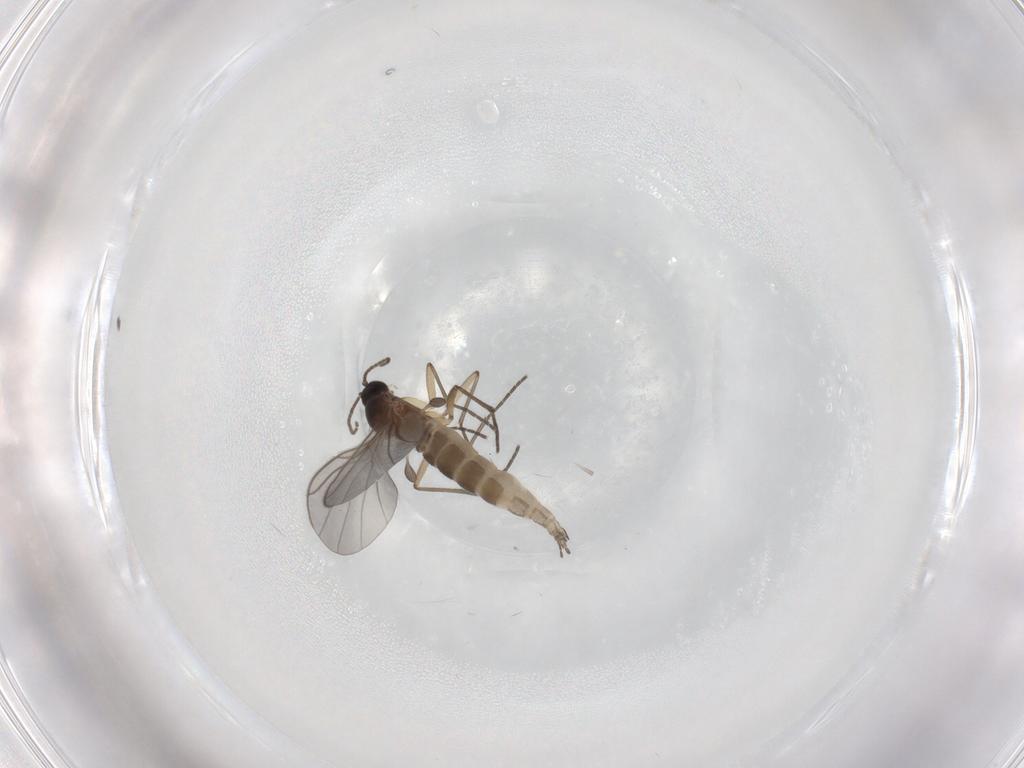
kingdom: Animalia
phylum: Arthropoda
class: Insecta
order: Diptera
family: Sciaridae
